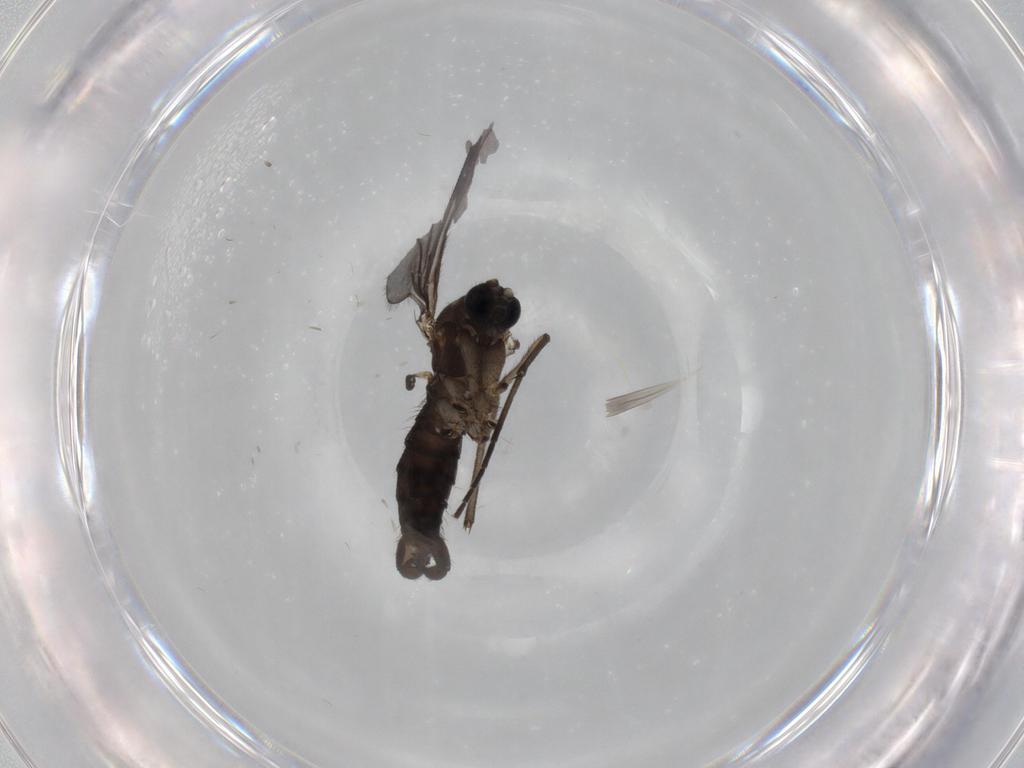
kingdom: Animalia
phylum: Arthropoda
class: Insecta
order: Diptera
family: Sciaridae
